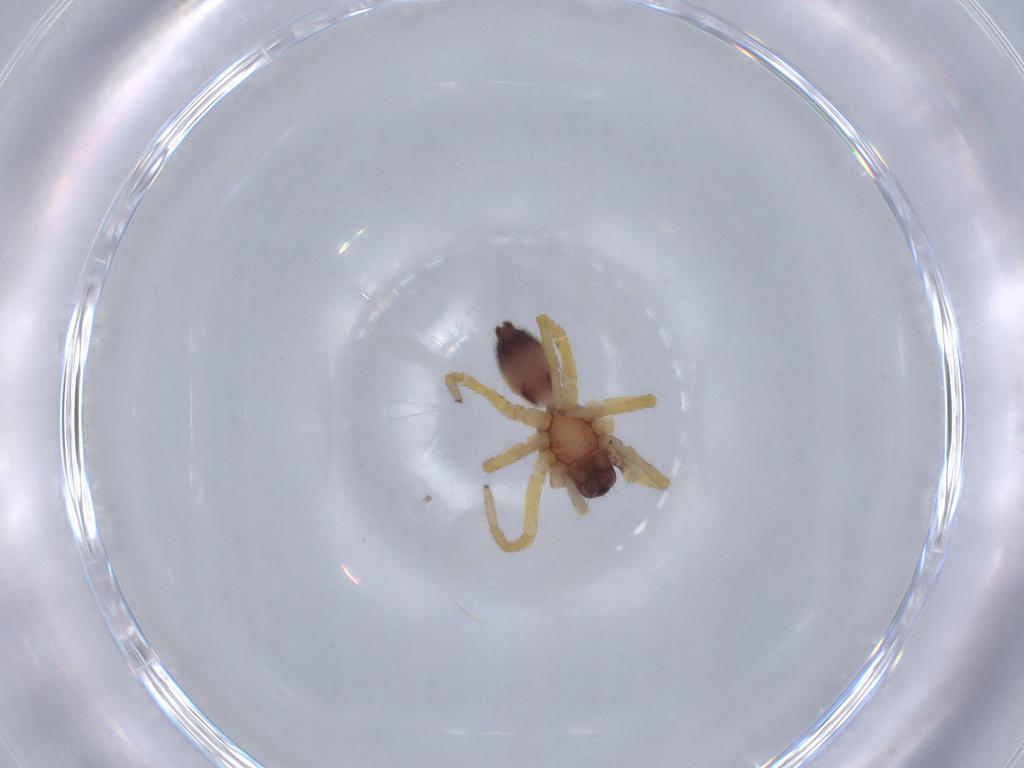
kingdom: Animalia
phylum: Arthropoda
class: Arachnida
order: Araneae
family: Corinnidae
